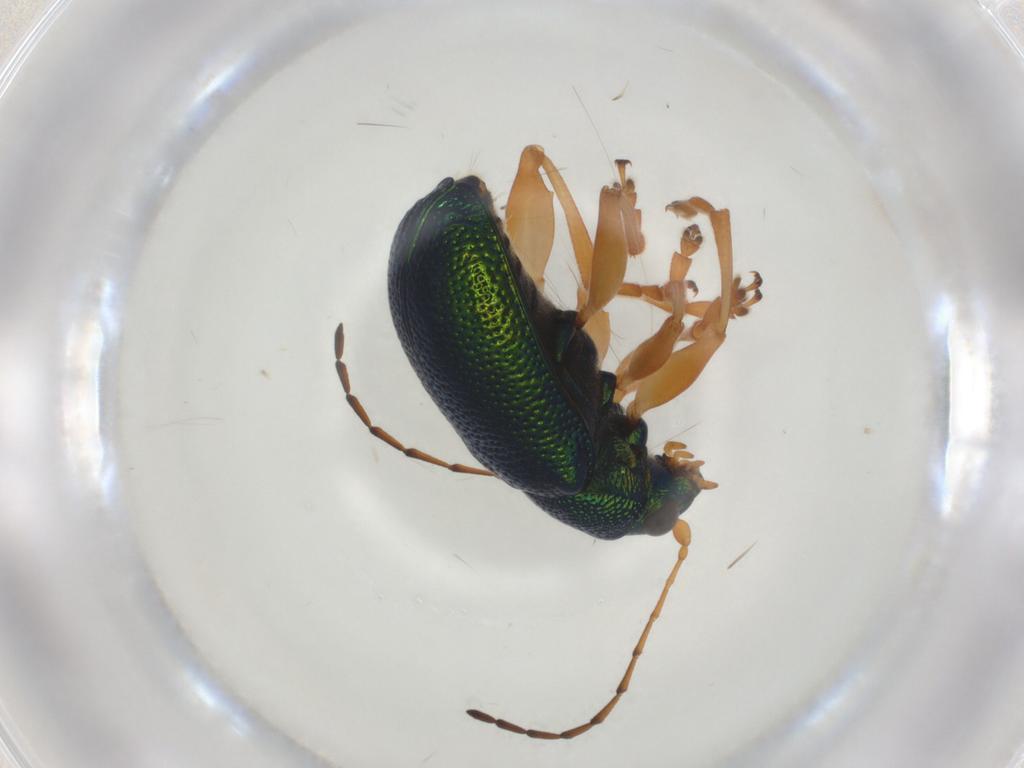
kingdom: Animalia
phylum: Arthropoda
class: Insecta
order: Coleoptera
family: Chrysomelidae
